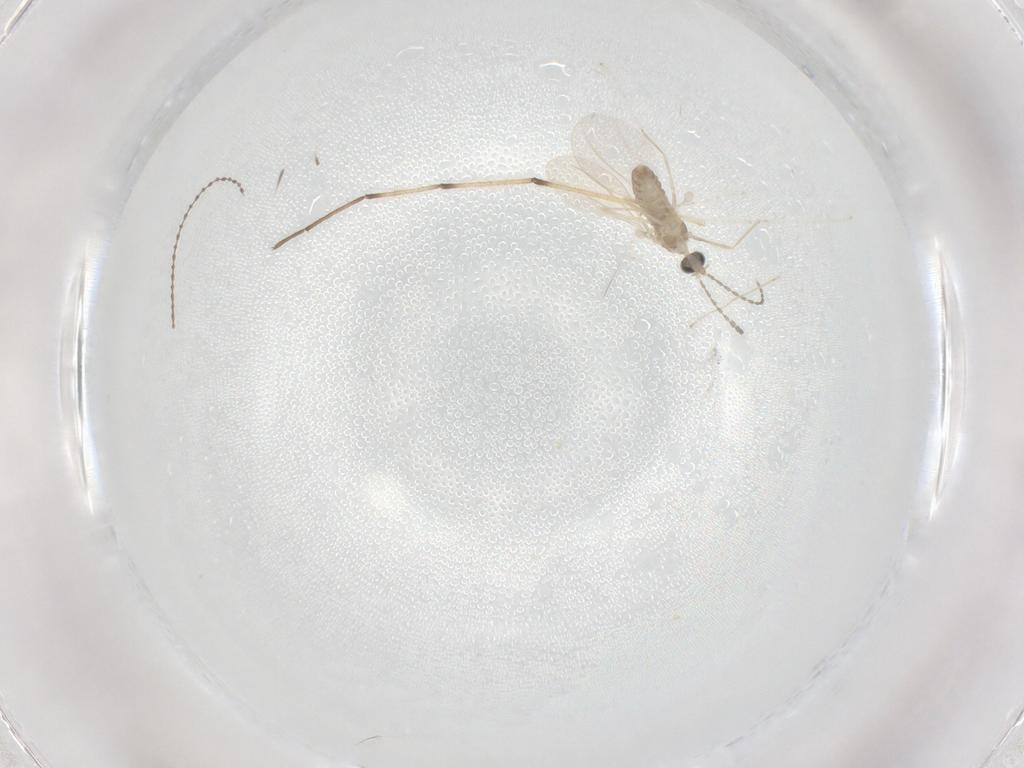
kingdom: Animalia
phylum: Arthropoda
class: Insecta
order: Diptera
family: Cecidomyiidae
